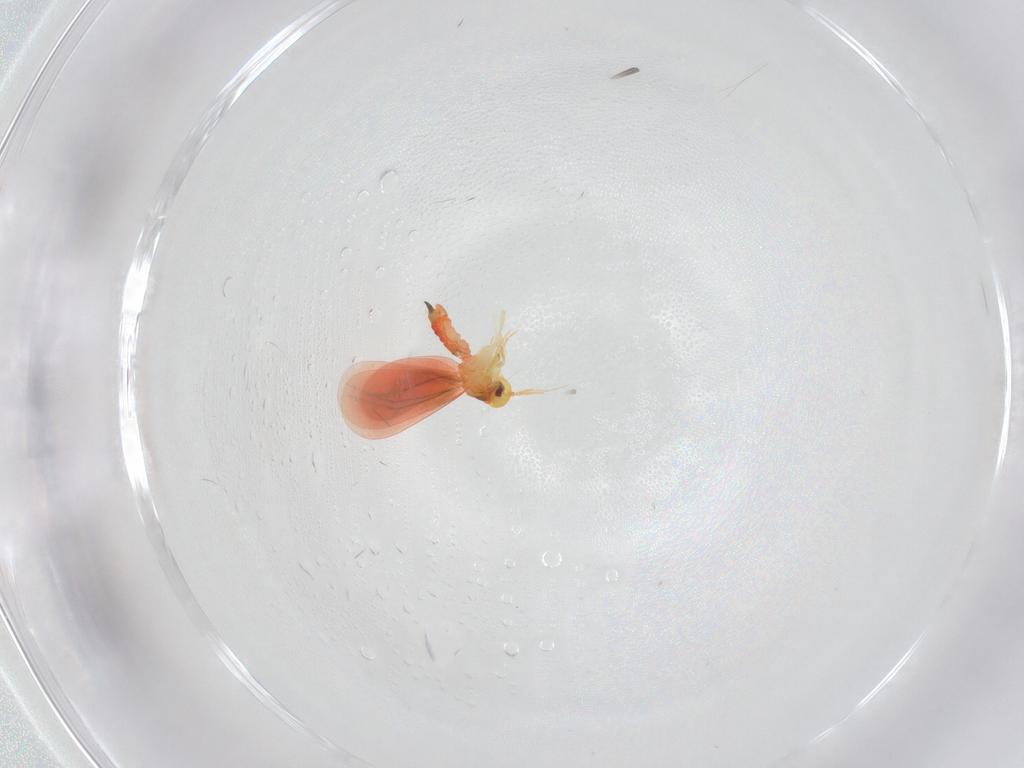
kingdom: Animalia
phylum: Arthropoda
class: Insecta
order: Hemiptera
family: Aleyrodidae
